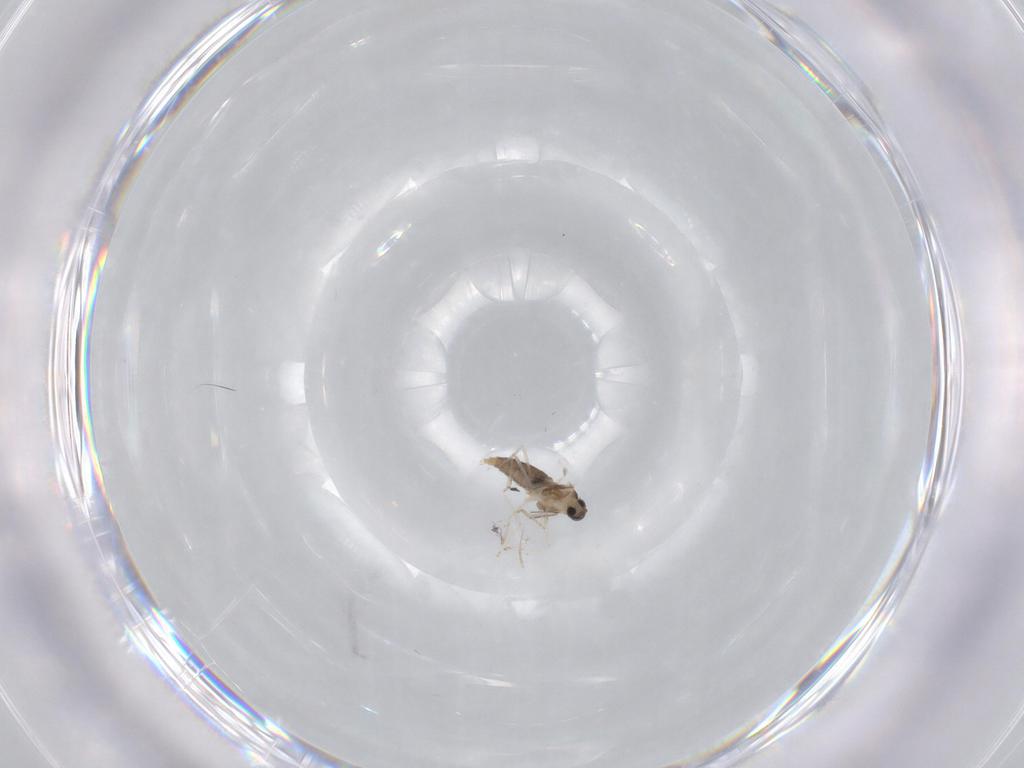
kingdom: Animalia
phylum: Arthropoda
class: Insecta
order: Diptera
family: Cecidomyiidae
